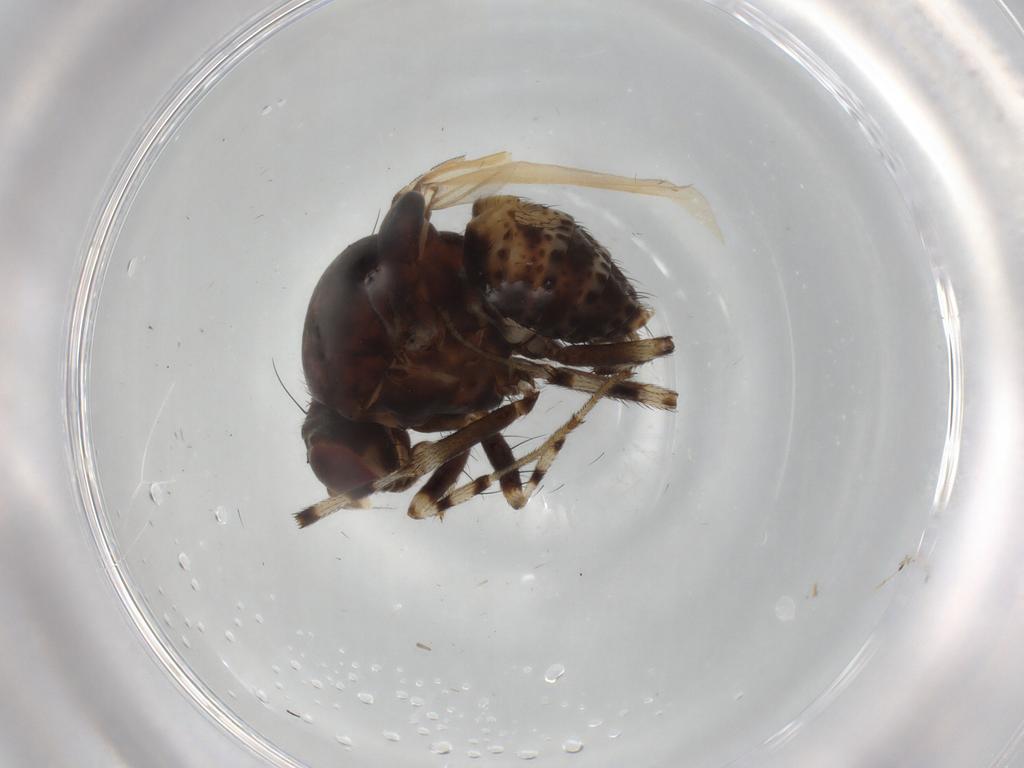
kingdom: Animalia
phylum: Arthropoda
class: Insecta
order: Diptera
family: Lauxaniidae
